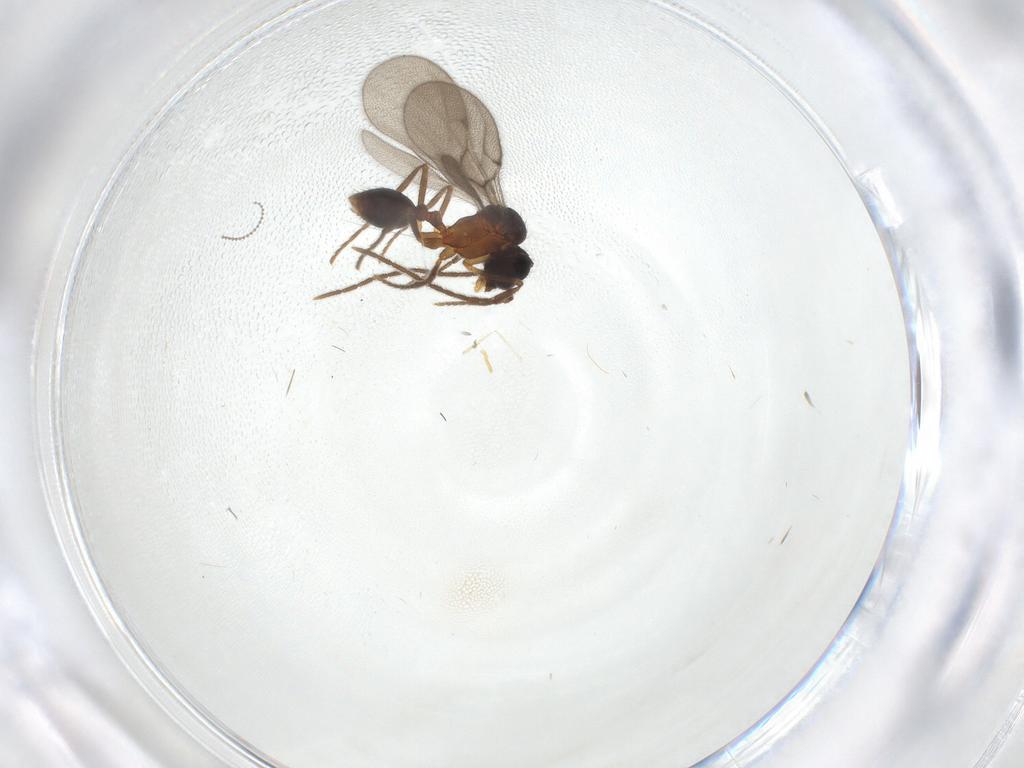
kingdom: Animalia
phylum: Arthropoda
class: Insecta
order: Hymenoptera
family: Formicidae
